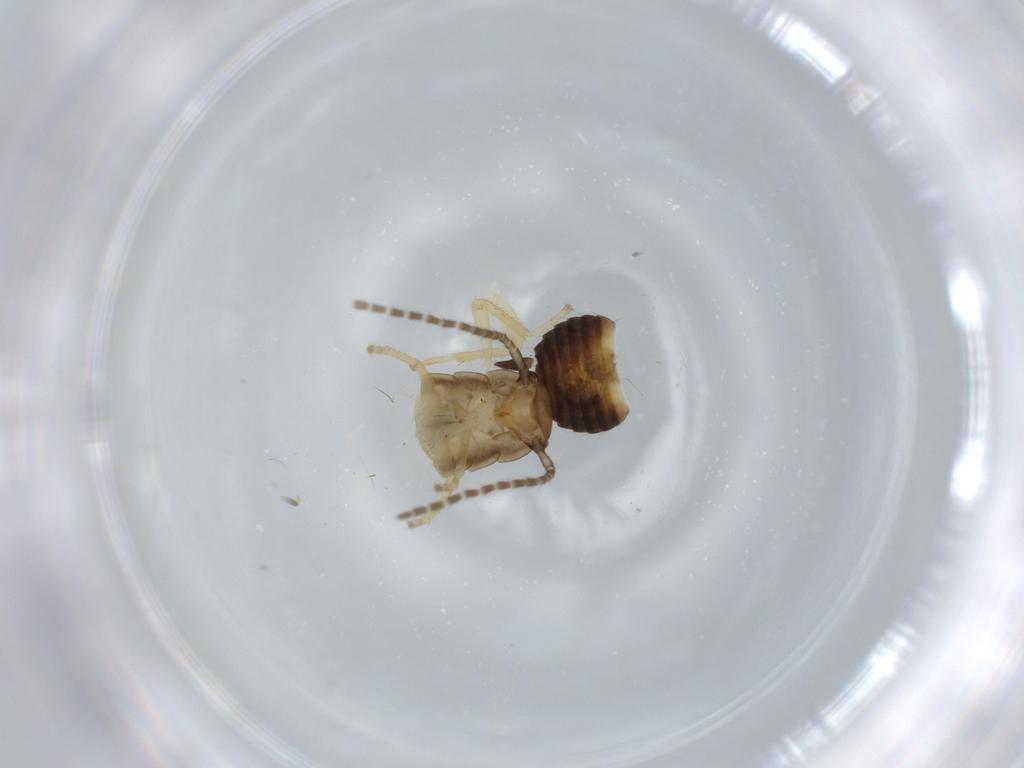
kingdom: Animalia
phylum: Arthropoda
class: Insecta
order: Blattodea
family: Ectobiidae
